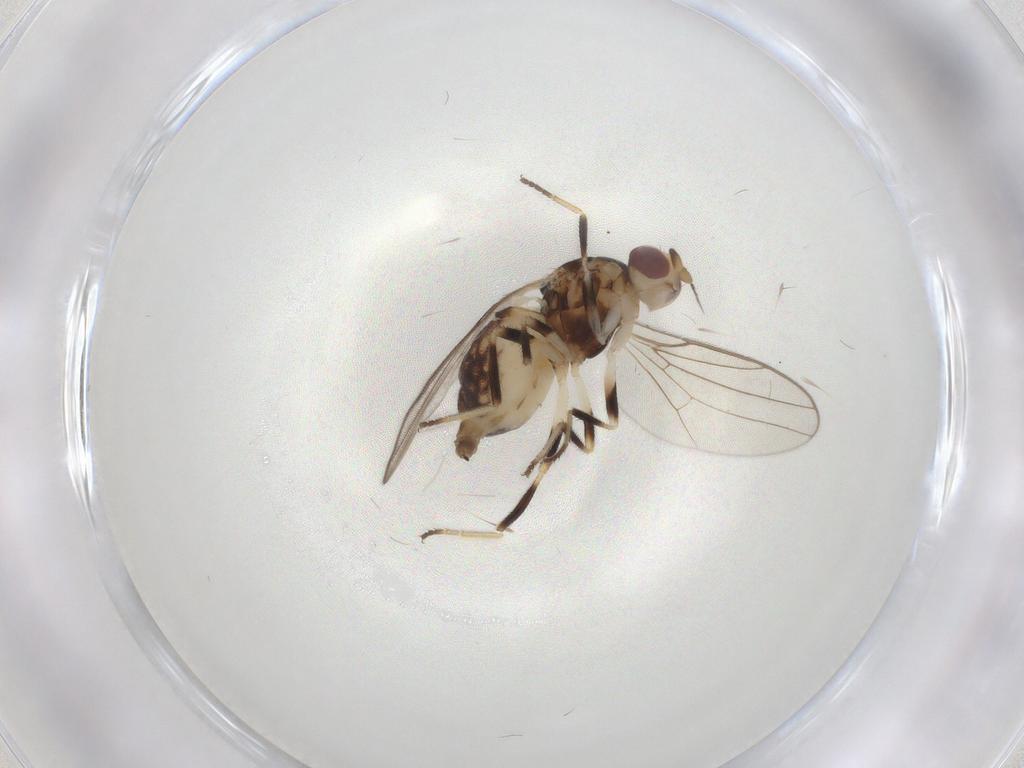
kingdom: Animalia
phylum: Arthropoda
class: Insecta
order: Diptera
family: Chloropidae
